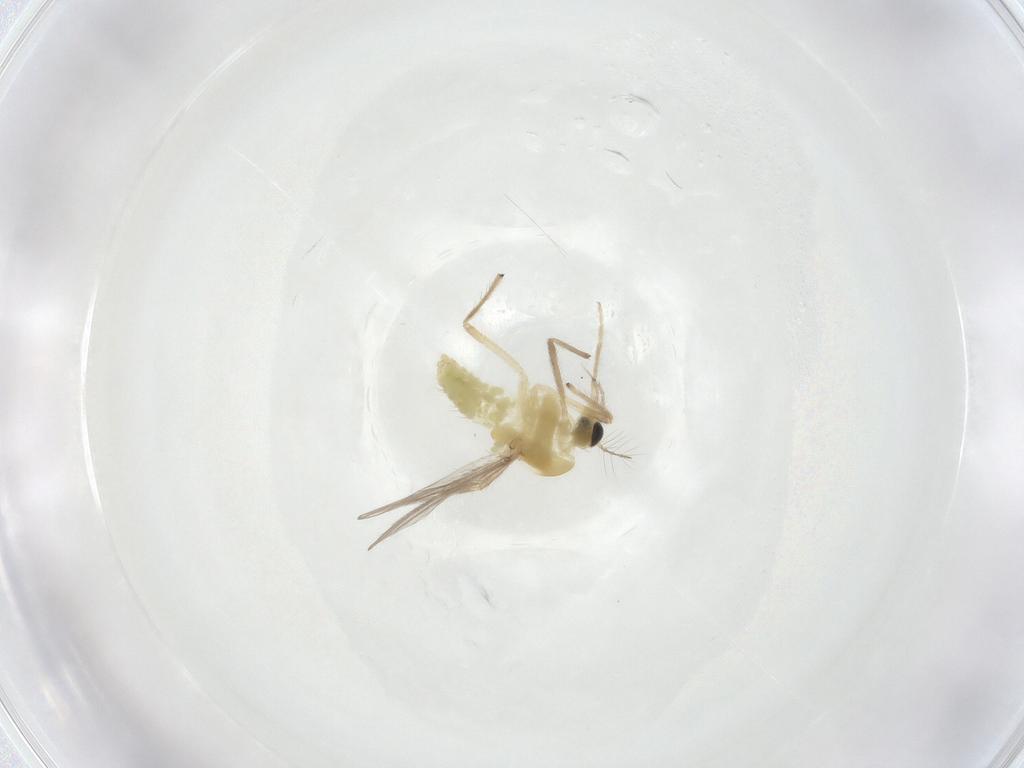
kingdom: Animalia
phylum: Arthropoda
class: Insecta
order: Diptera
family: Chironomidae
